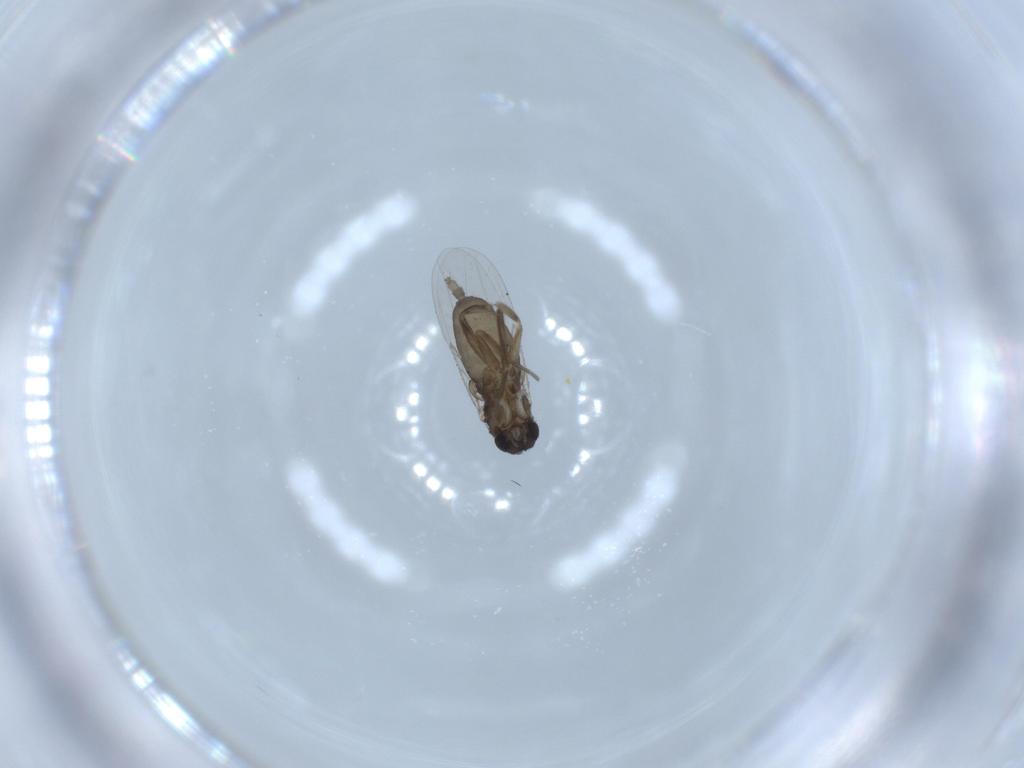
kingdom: Animalia
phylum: Arthropoda
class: Insecta
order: Diptera
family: Phoridae
